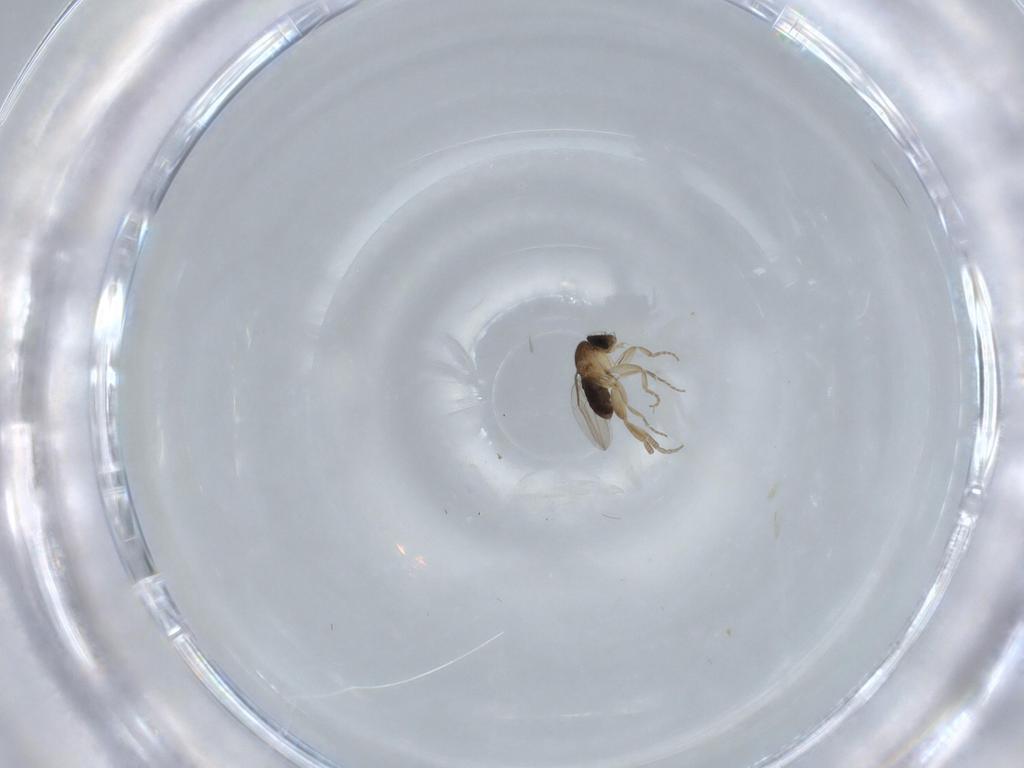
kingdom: Animalia
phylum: Arthropoda
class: Insecta
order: Diptera
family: Phoridae
